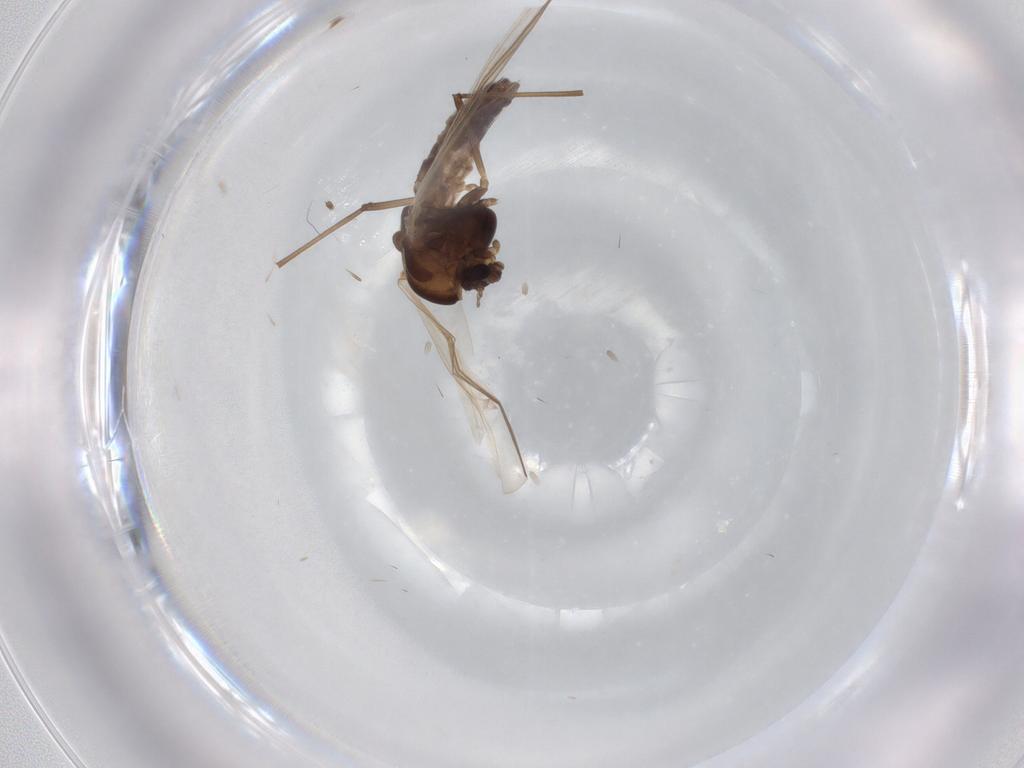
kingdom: Animalia
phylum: Arthropoda
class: Insecta
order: Diptera
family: Chironomidae
